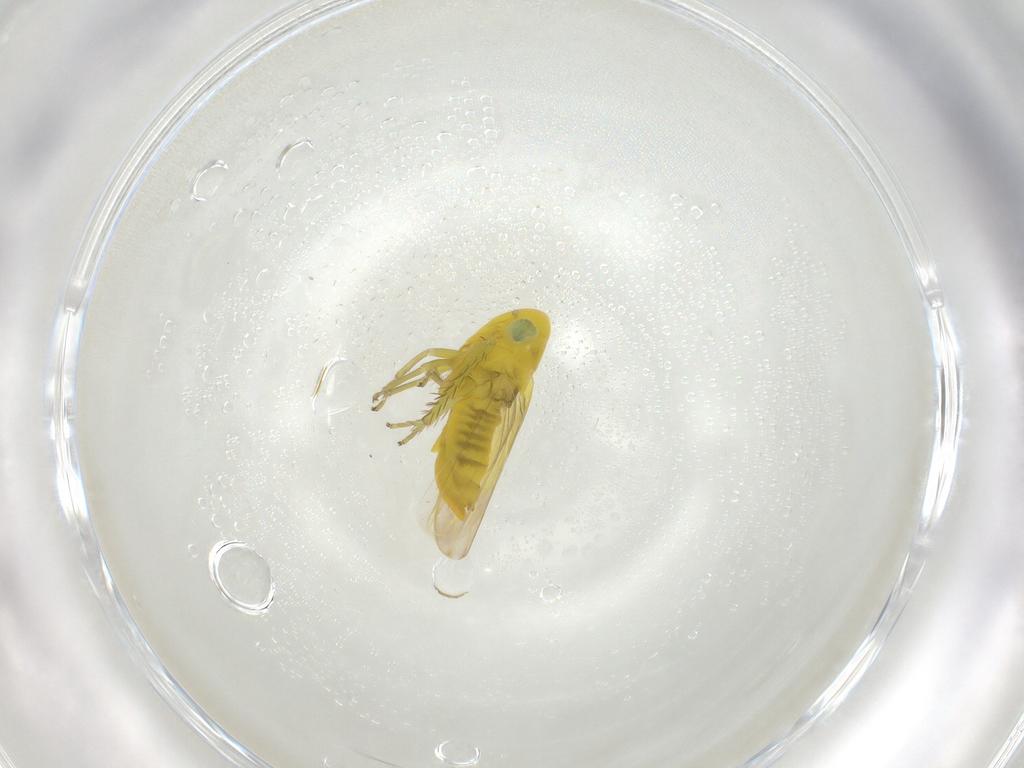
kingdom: Animalia
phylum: Arthropoda
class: Insecta
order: Hemiptera
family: Cicadellidae
